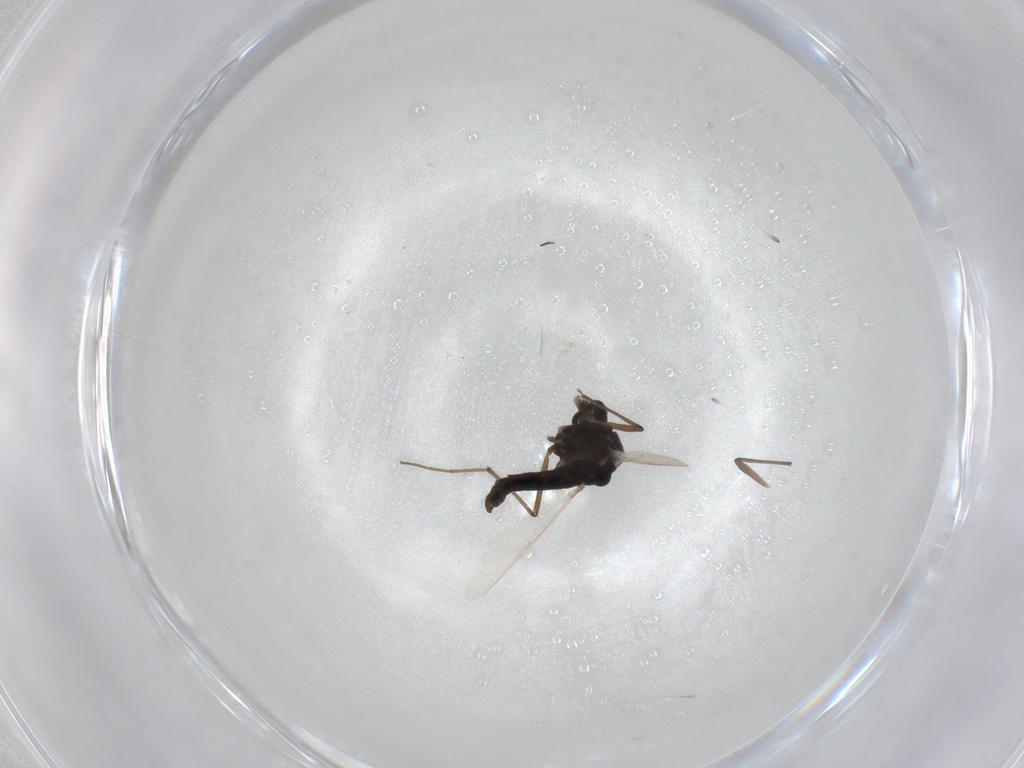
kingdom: Animalia
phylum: Arthropoda
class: Insecta
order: Diptera
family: Chironomidae
